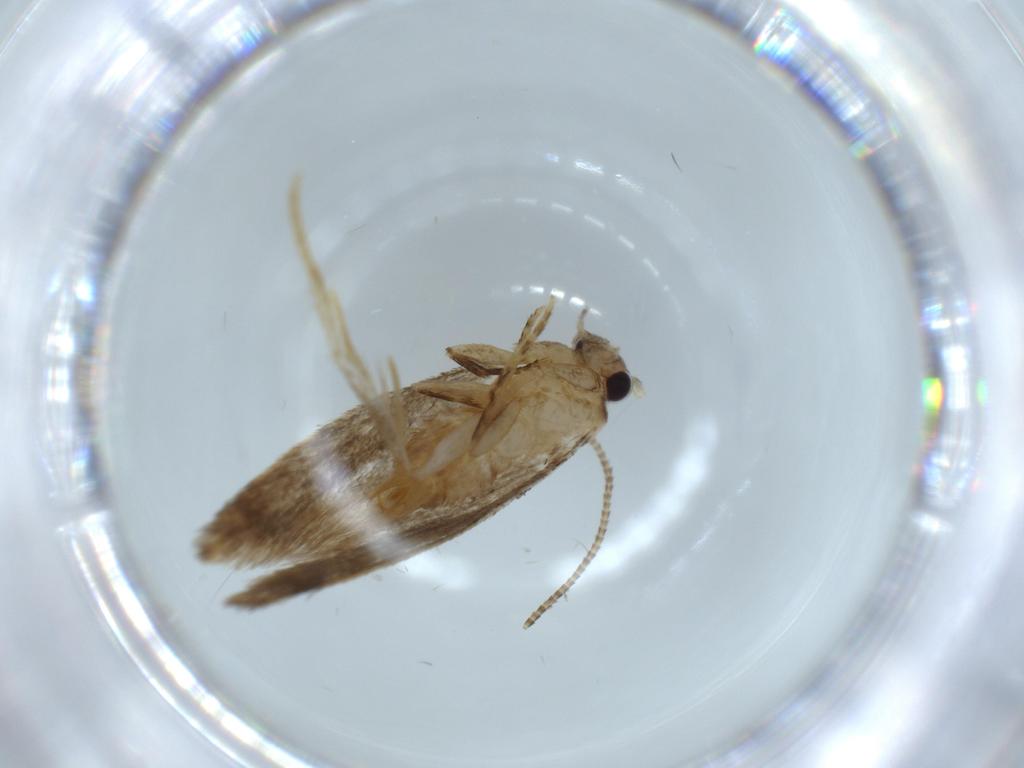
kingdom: Animalia
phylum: Arthropoda
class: Insecta
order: Lepidoptera
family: Tineidae
